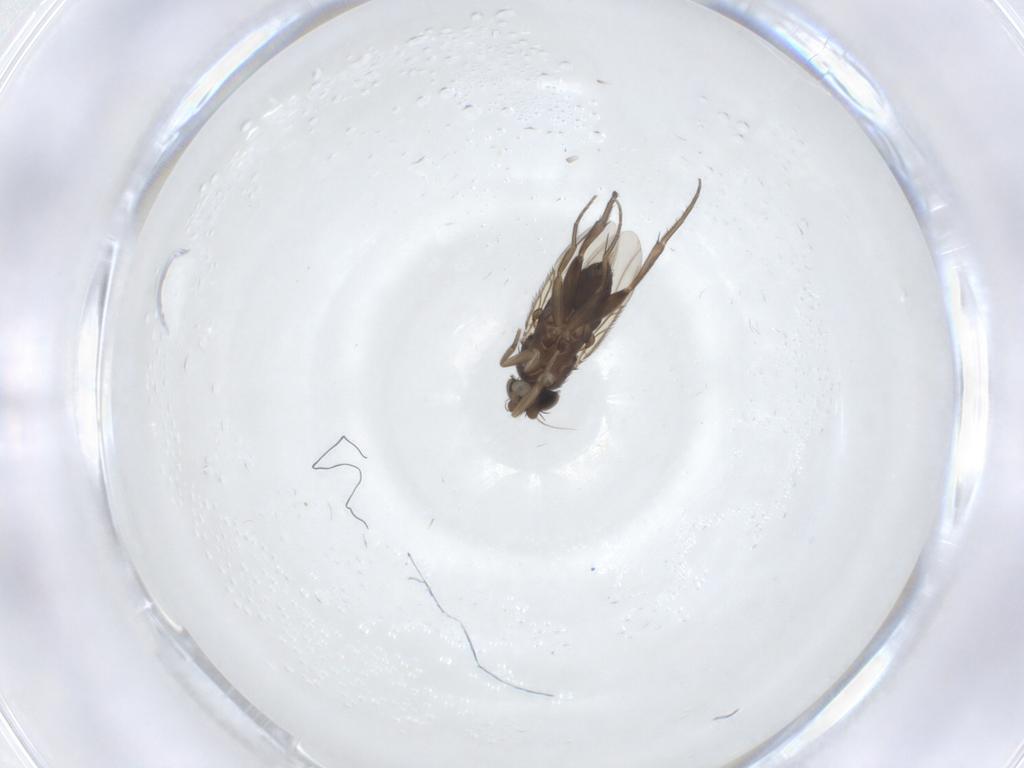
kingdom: Animalia
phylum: Arthropoda
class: Insecta
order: Diptera
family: Phoridae
